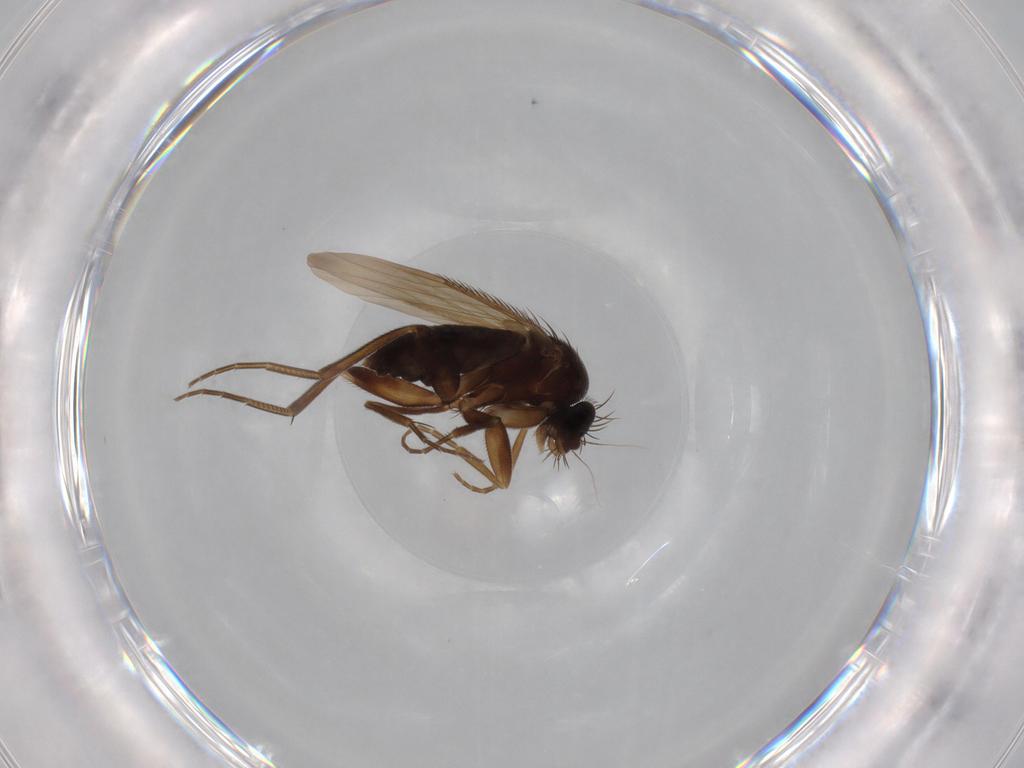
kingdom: Animalia
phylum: Arthropoda
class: Insecta
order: Diptera
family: Phoridae
